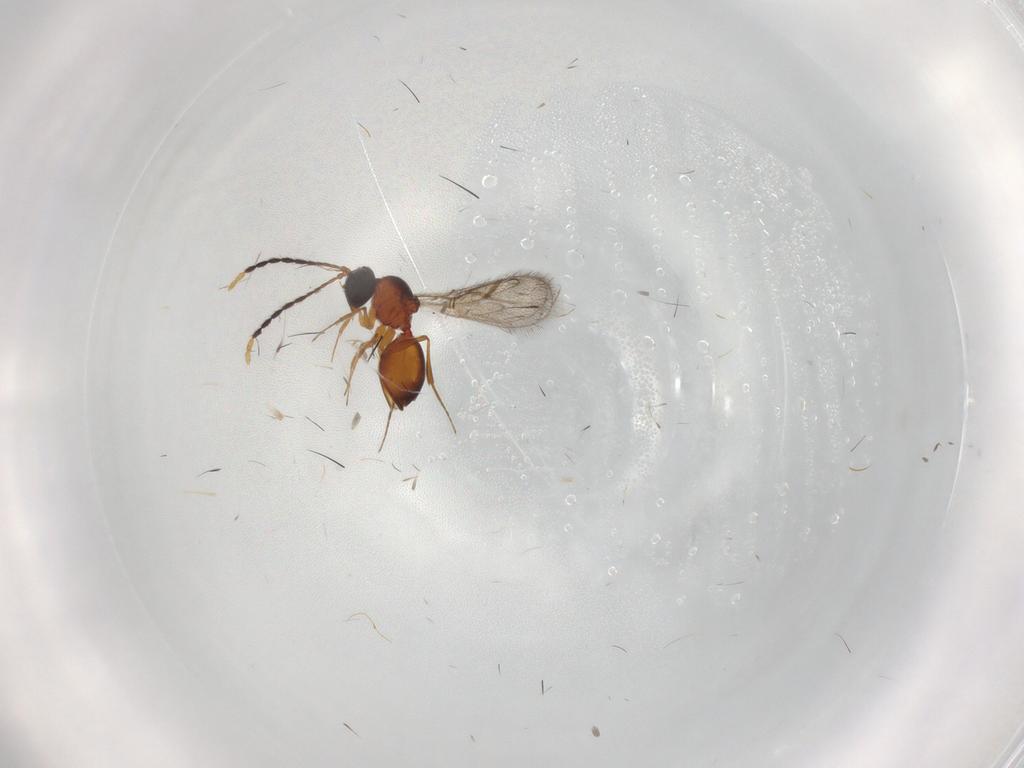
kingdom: Animalia
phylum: Arthropoda
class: Insecta
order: Hymenoptera
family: Figitidae
